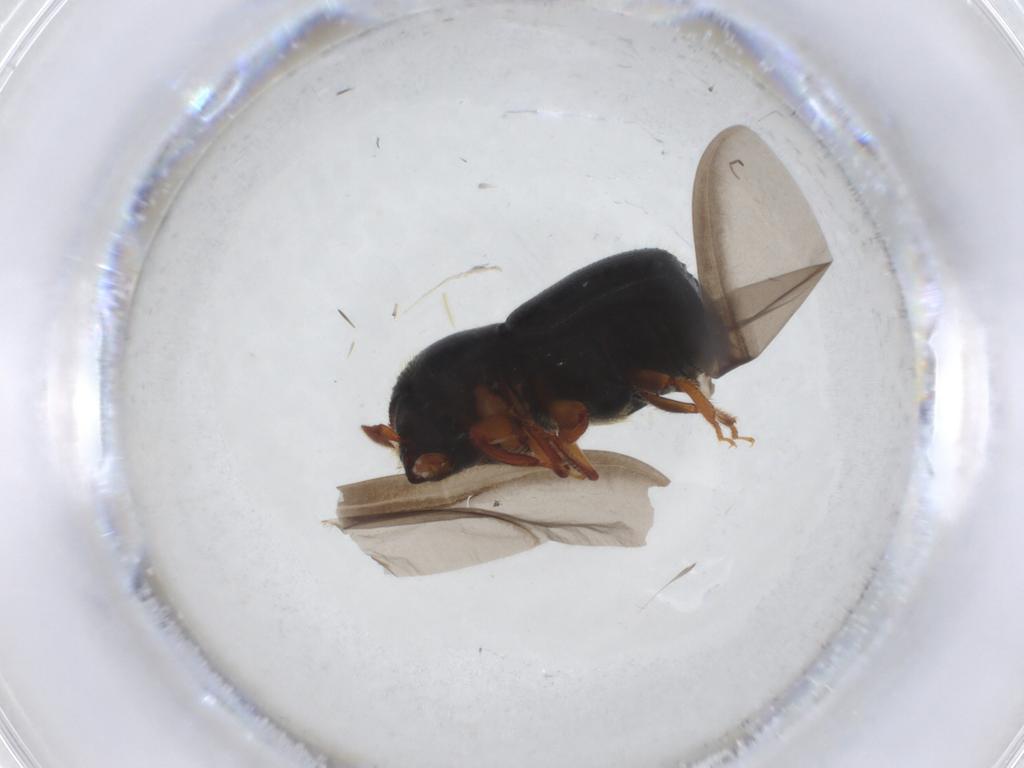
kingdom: Animalia
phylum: Arthropoda
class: Insecta
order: Coleoptera
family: Curculionidae
